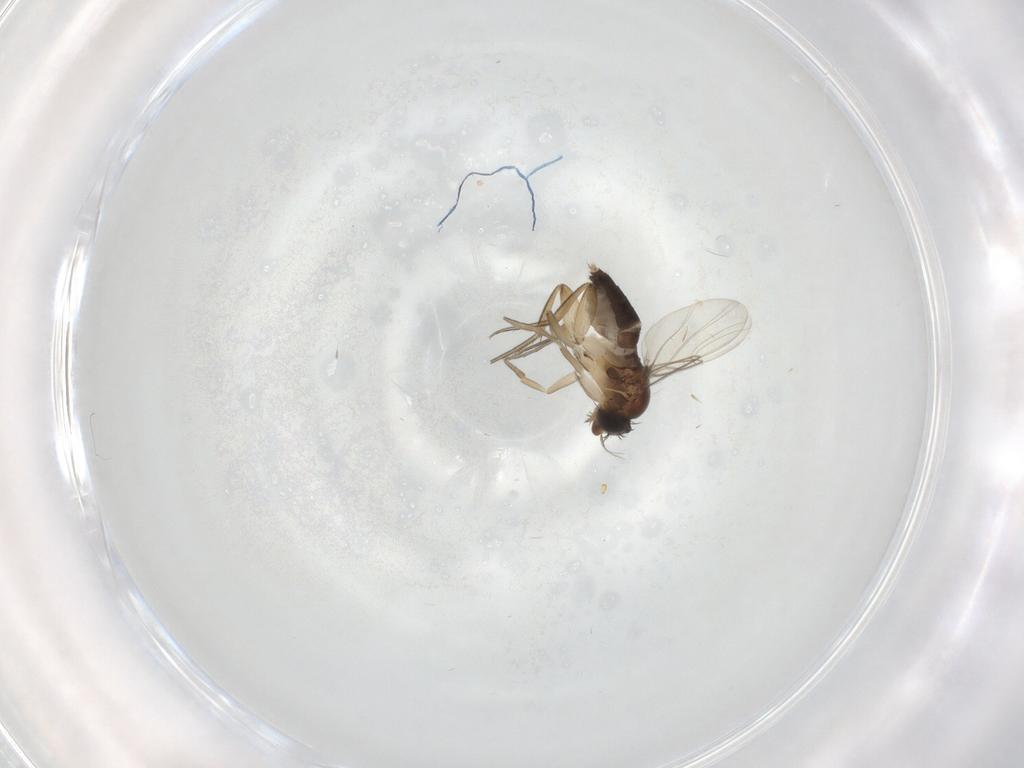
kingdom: Animalia
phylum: Arthropoda
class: Insecta
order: Diptera
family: Phoridae
